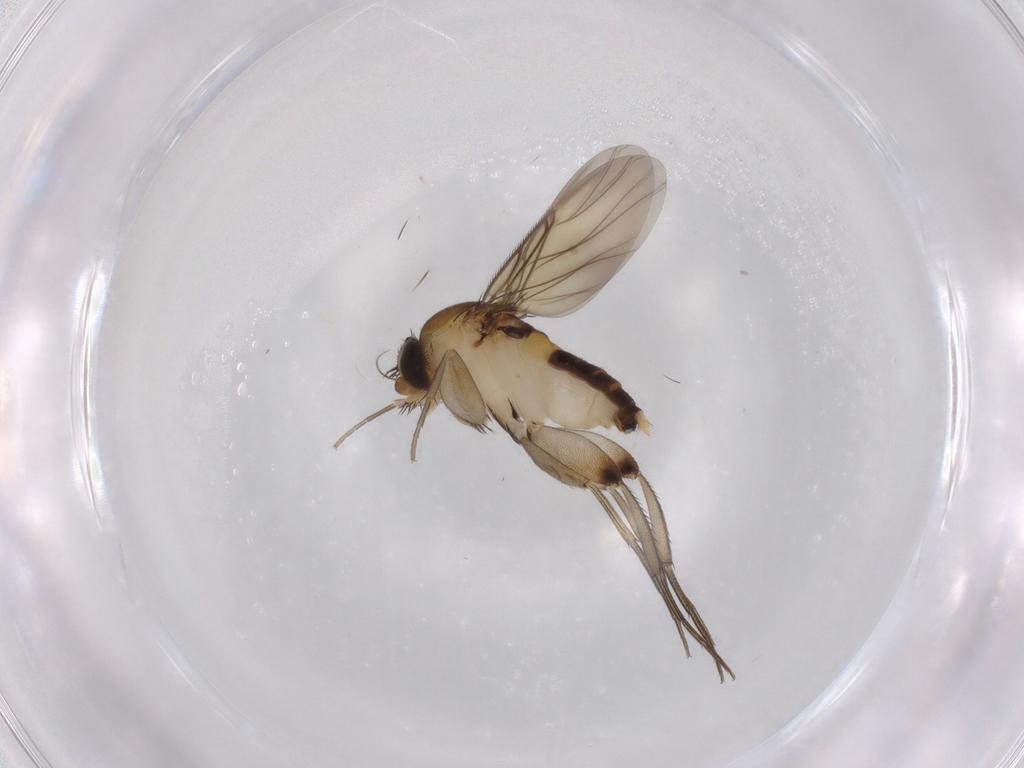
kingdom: Animalia
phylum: Arthropoda
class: Insecta
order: Diptera
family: Phoridae
